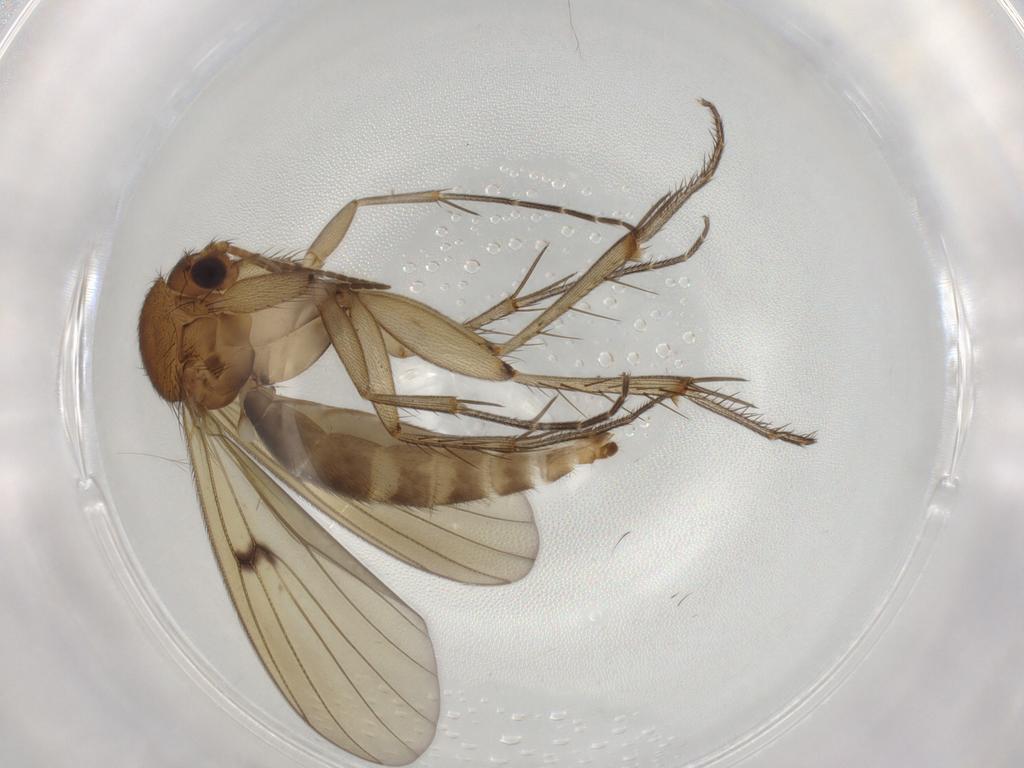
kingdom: Animalia
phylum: Arthropoda
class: Insecta
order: Diptera
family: Mycetophilidae
